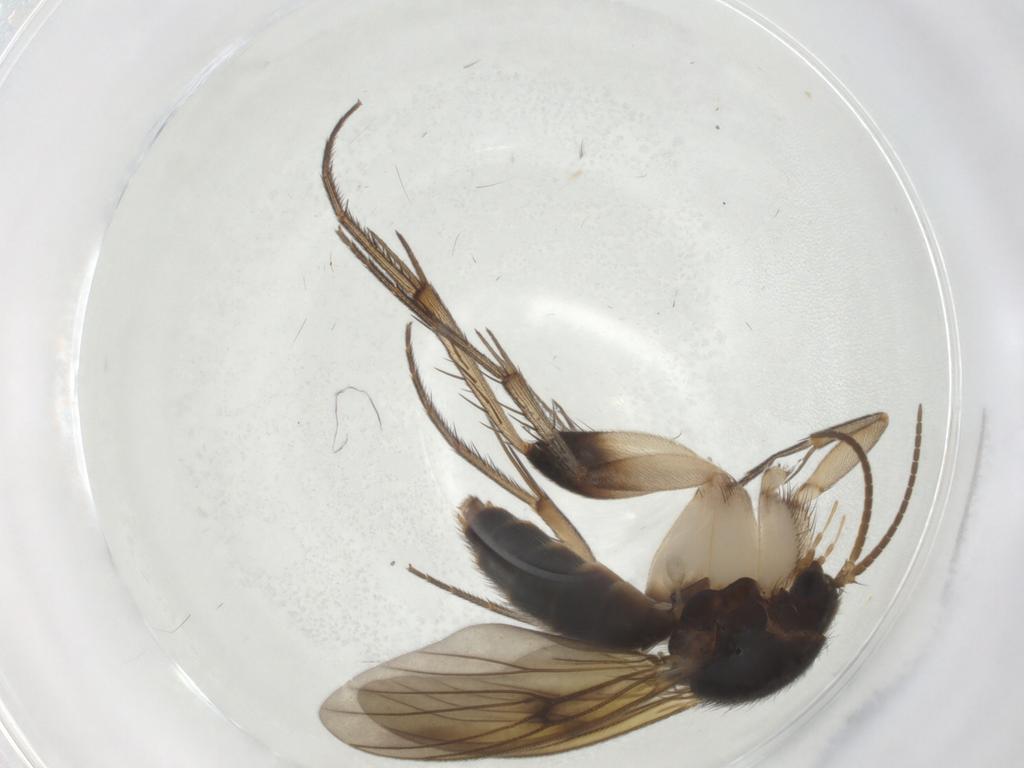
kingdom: Animalia
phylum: Arthropoda
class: Insecta
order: Diptera
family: Mycetophilidae
